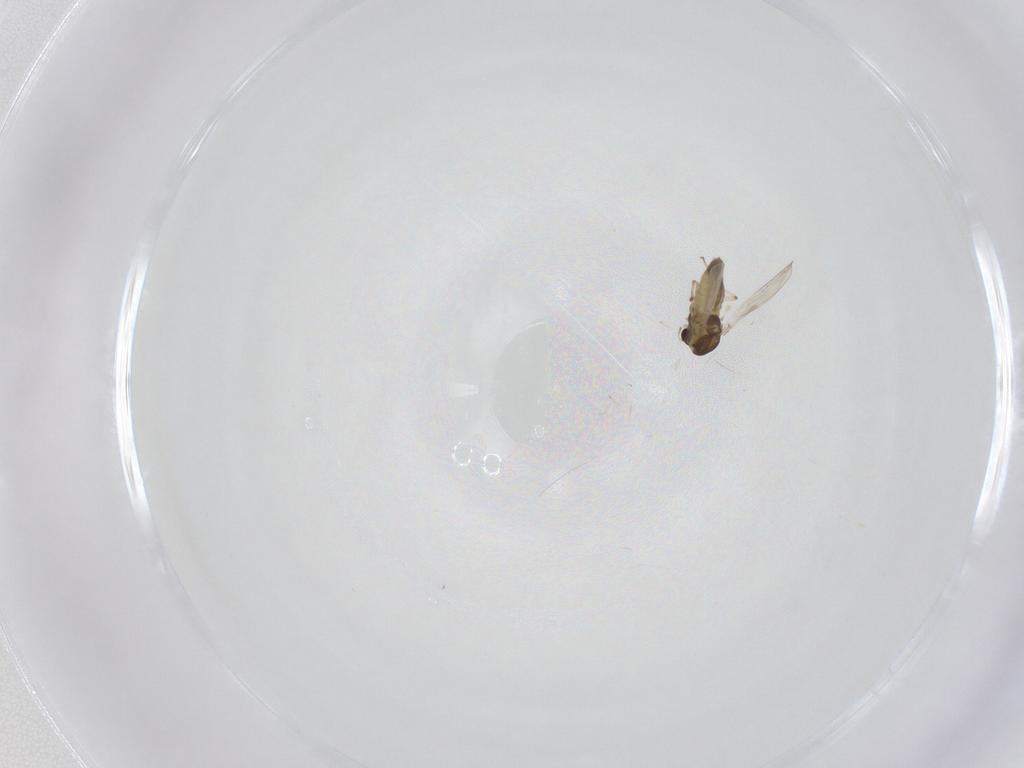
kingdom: Animalia
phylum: Arthropoda
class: Insecta
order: Diptera
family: Chironomidae
